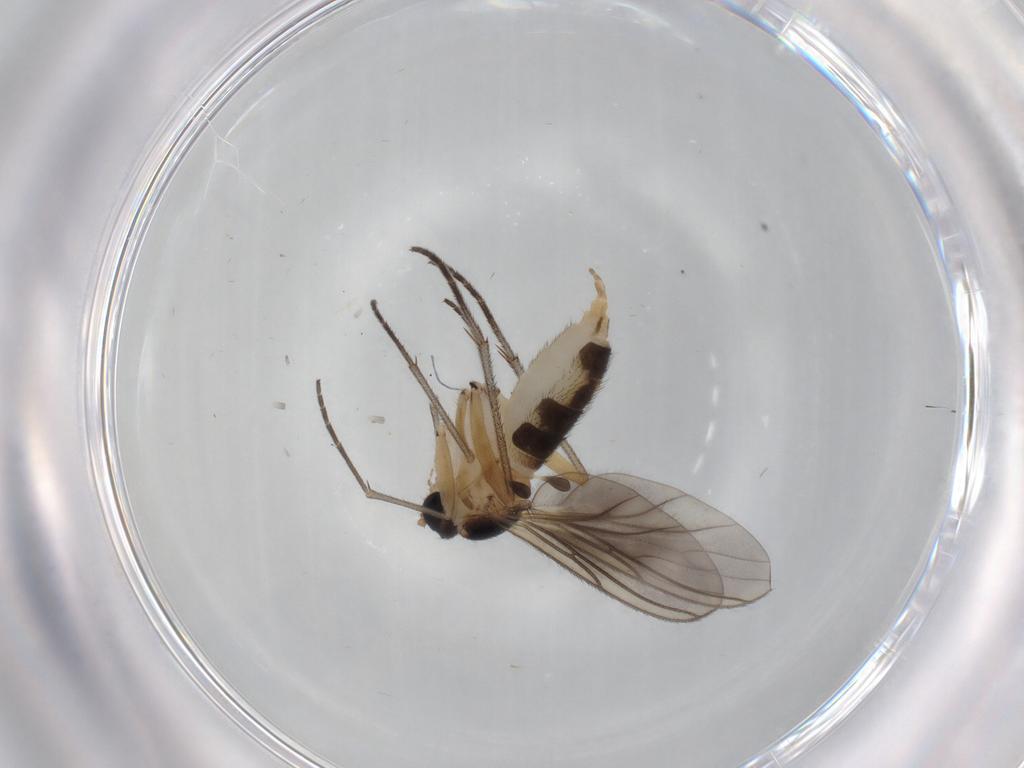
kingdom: Animalia
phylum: Arthropoda
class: Insecta
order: Diptera
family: Sciaridae
